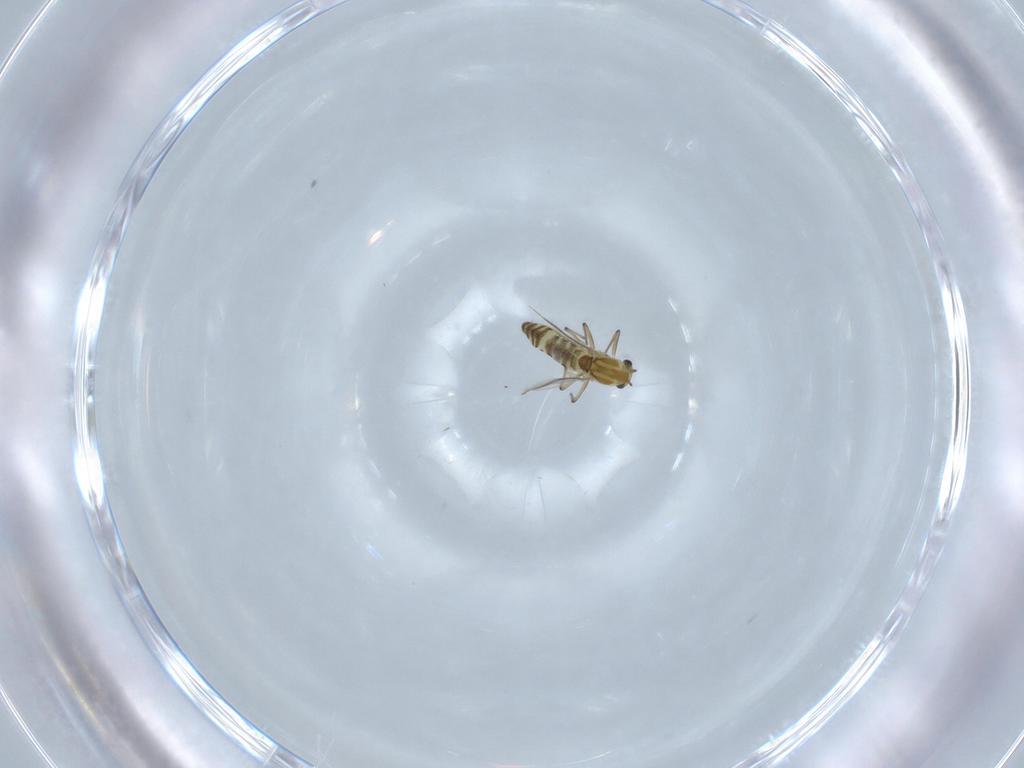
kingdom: Animalia
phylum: Arthropoda
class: Insecta
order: Diptera
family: Chironomidae
